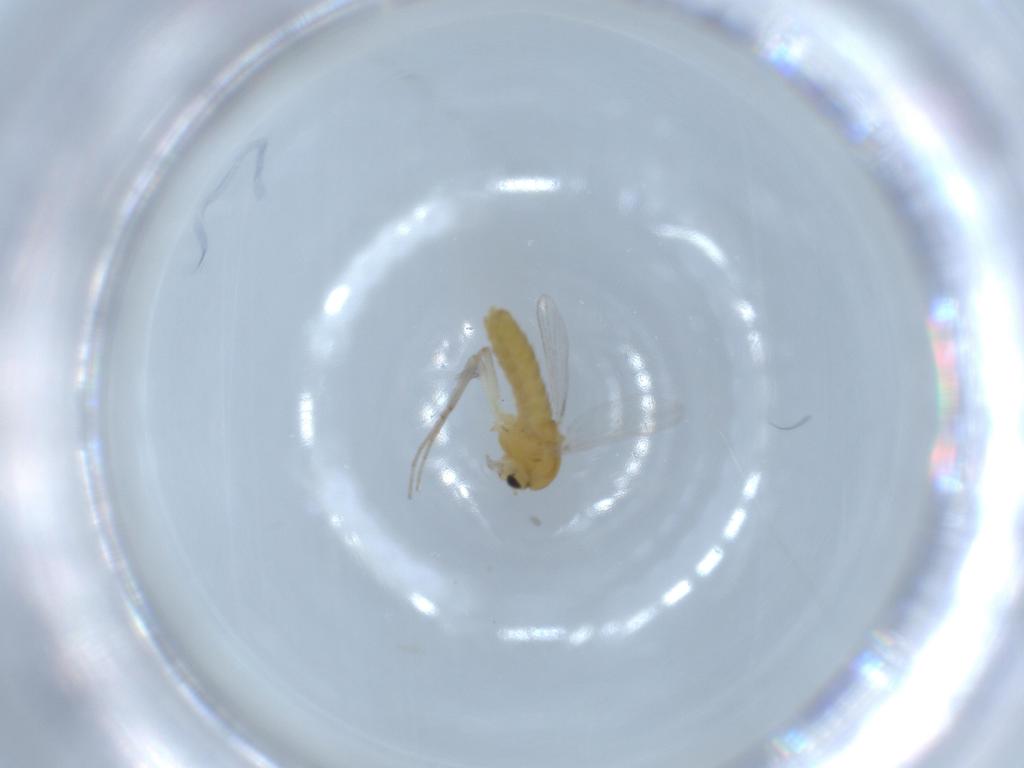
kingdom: Animalia
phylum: Arthropoda
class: Insecta
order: Diptera
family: Chironomidae
